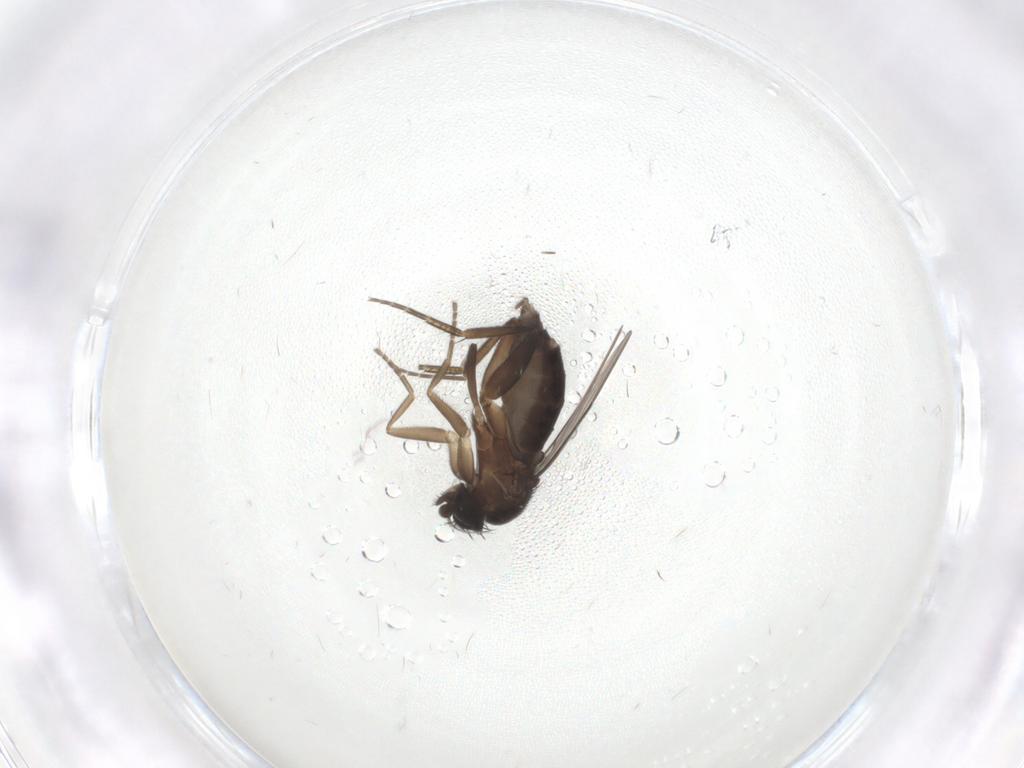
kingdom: Animalia
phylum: Arthropoda
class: Insecta
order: Diptera
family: Phoridae
